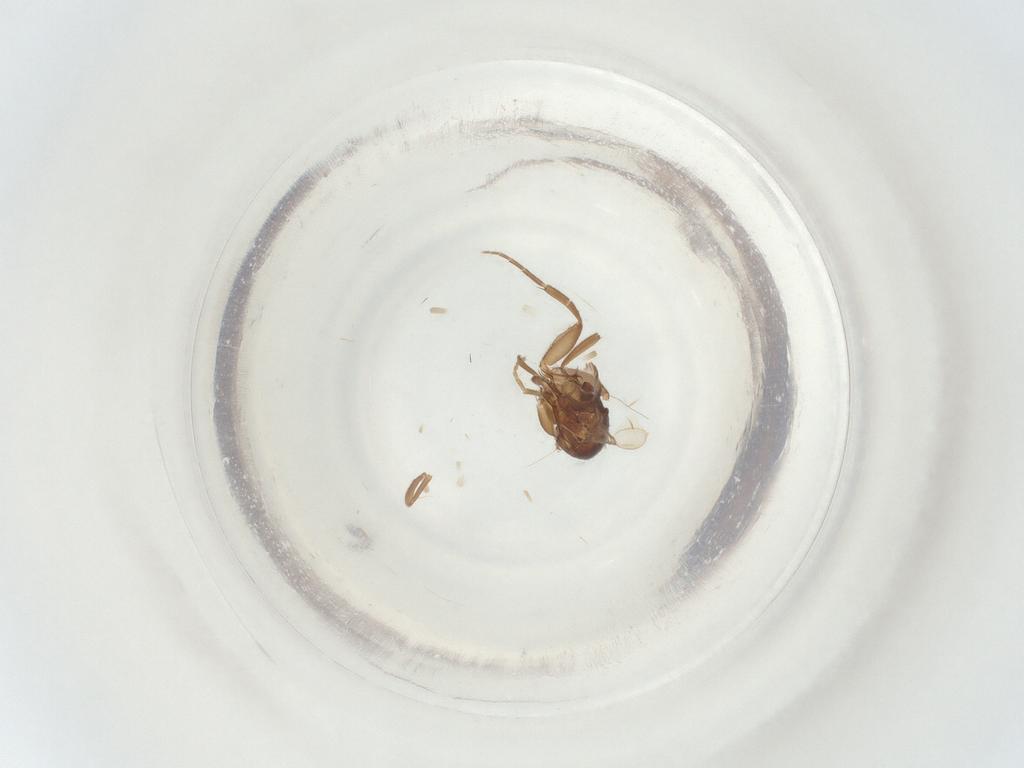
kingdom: Animalia
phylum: Arthropoda
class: Insecta
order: Diptera
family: Phoridae
